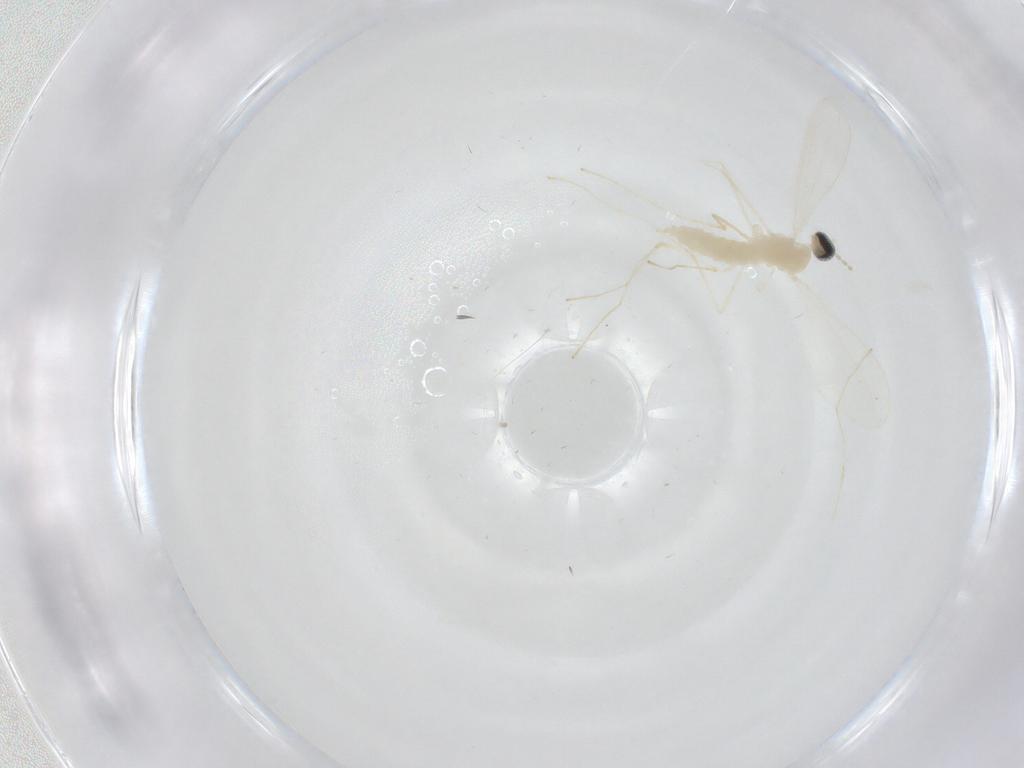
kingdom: Animalia
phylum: Arthropoda
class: Insecta
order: Diptera
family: Cecidomyiidae
